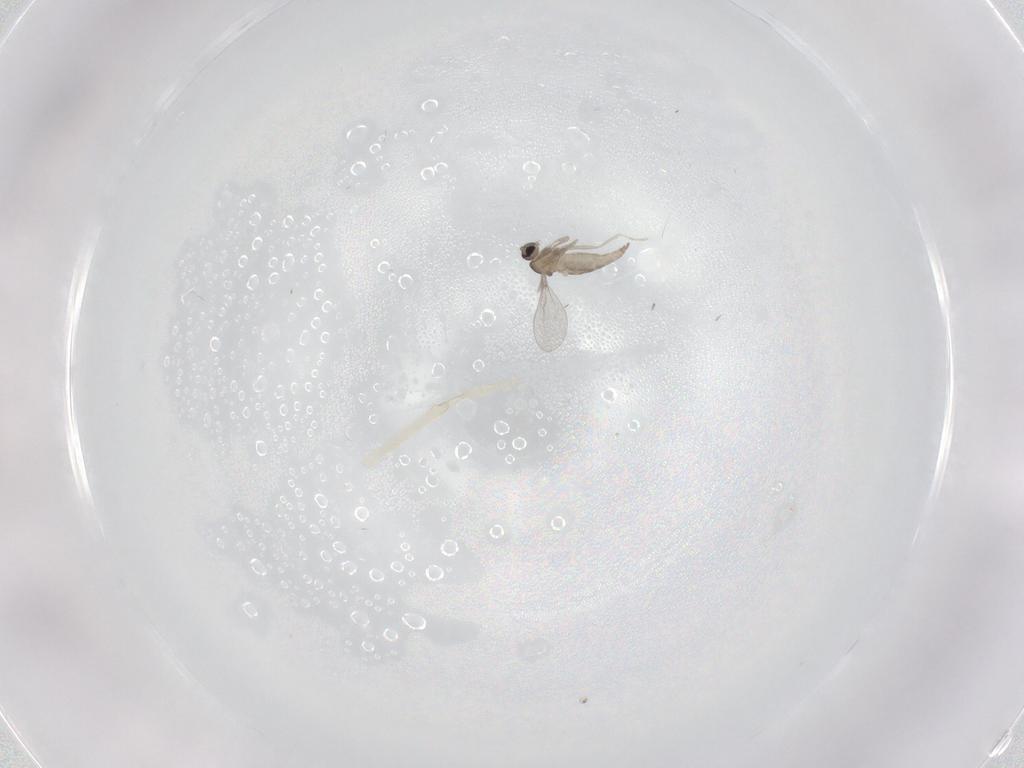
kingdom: Animalia
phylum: Arthropoda
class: Insecta
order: Diptera
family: Cecidomyiidae
